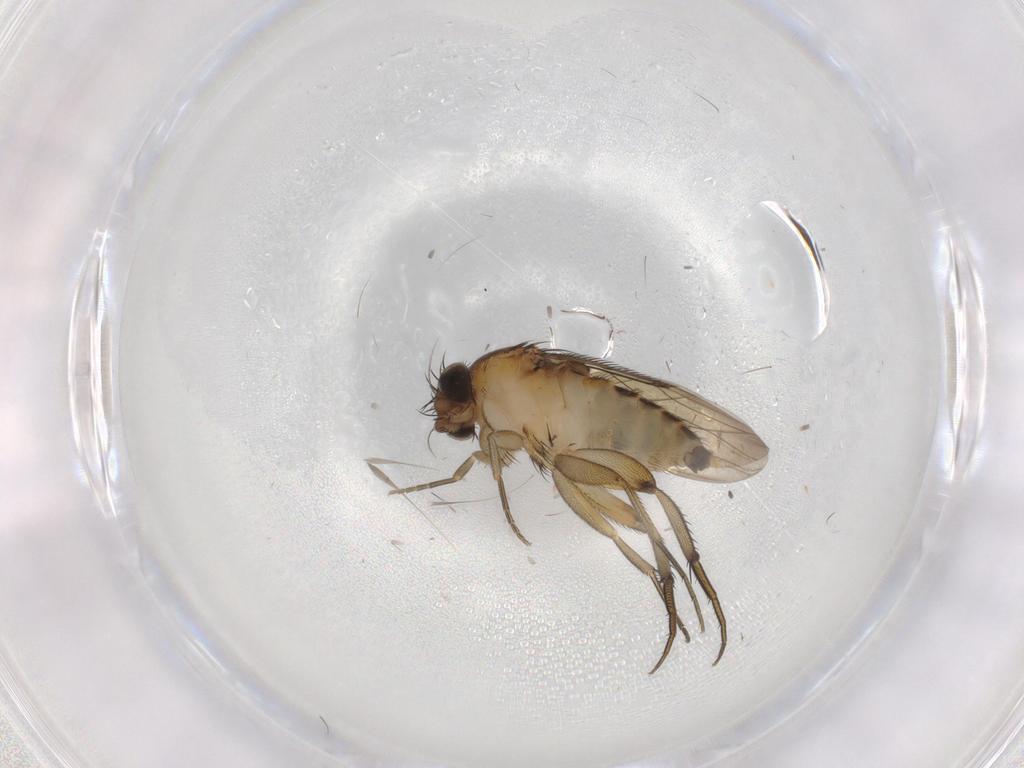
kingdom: Animalia
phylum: Arthropoda
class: Insecta
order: Diptera
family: Phoridae
